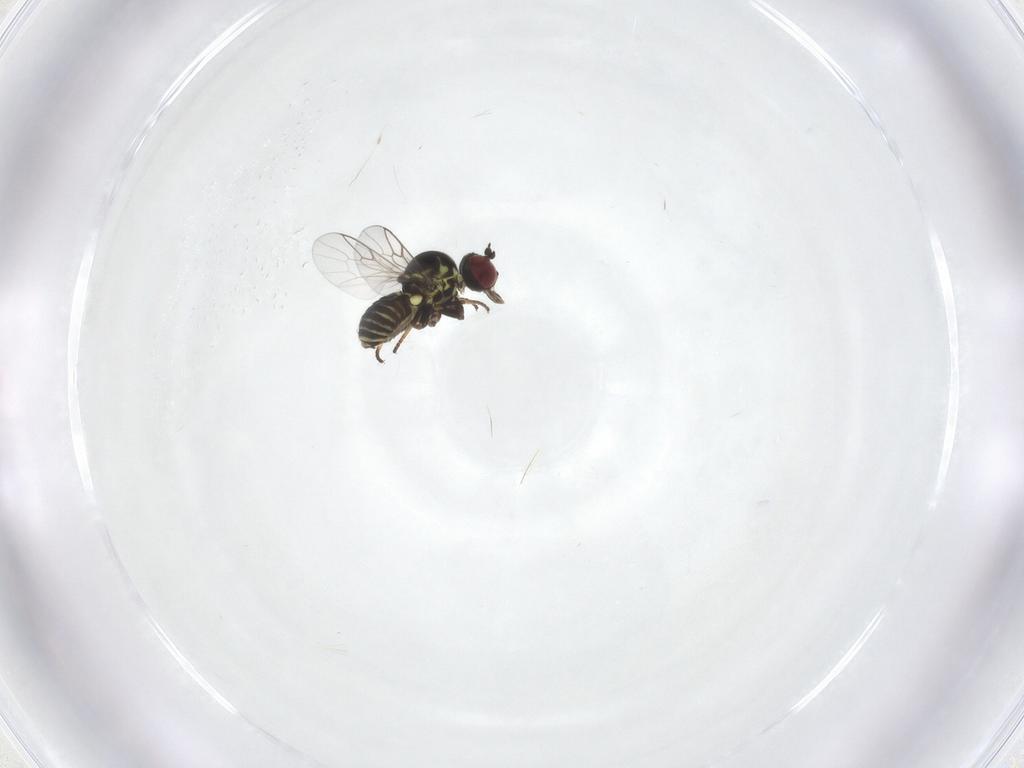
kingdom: Animalia
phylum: Arthropoda
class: Insecta
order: Diptera
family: Mythicomyiidae
